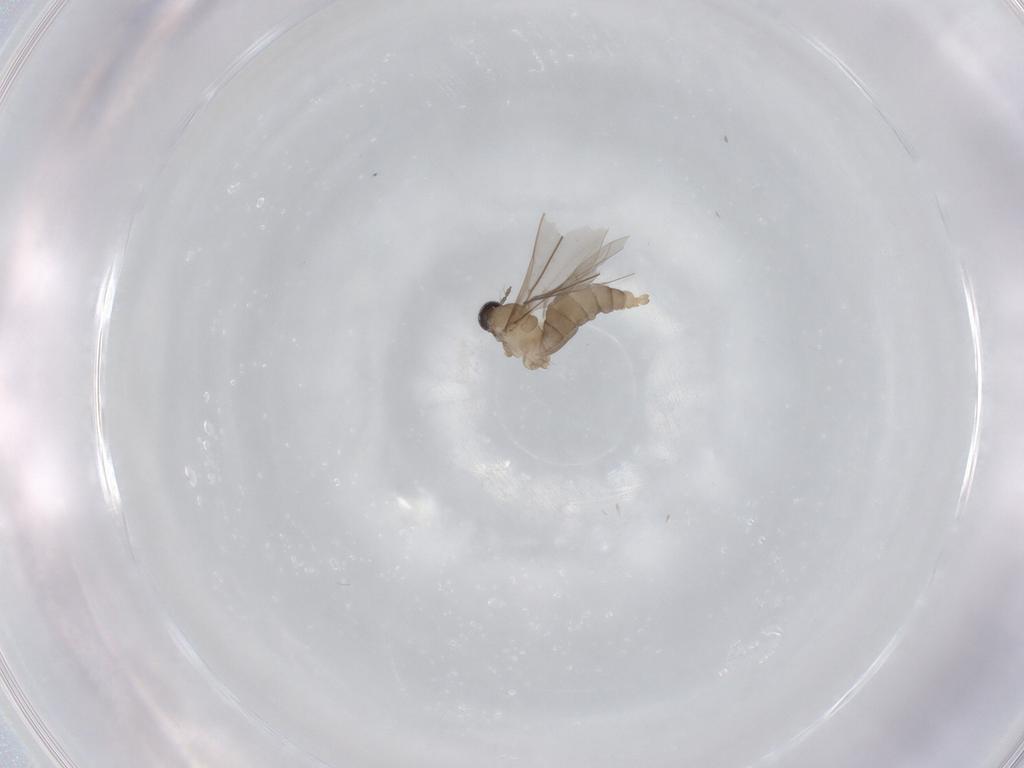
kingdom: Animalia
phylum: Arthropoda
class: Insecta
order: Diptera
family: Cecidomyiidae
